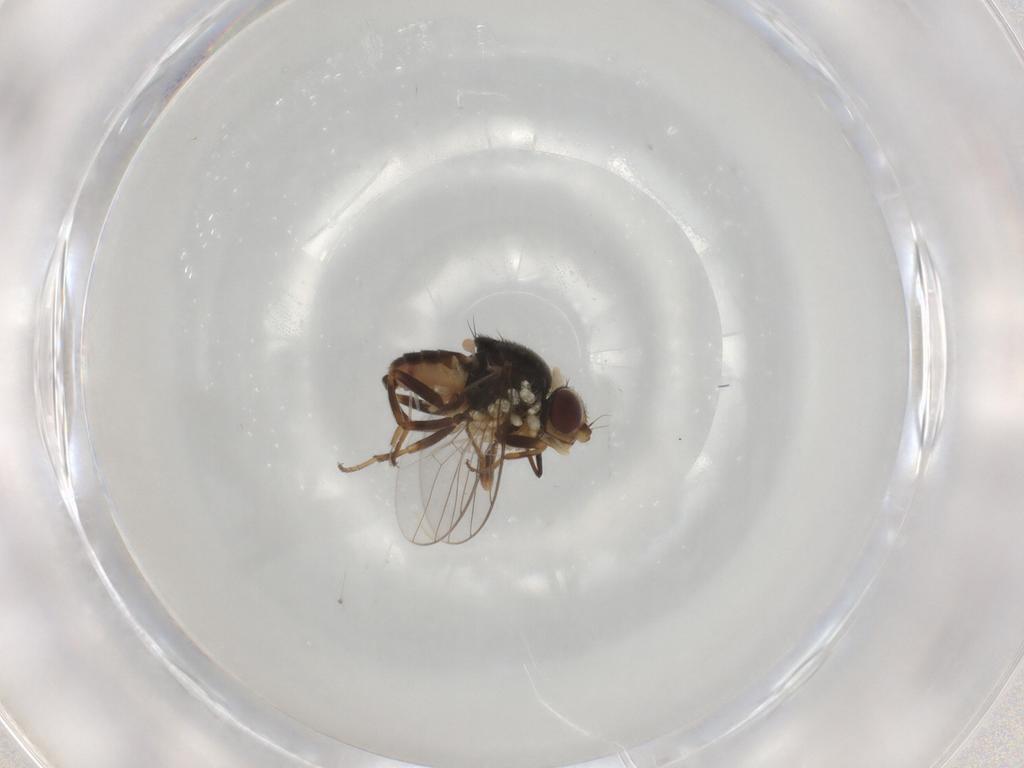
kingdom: Animalia
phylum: Arthropoda
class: Insecta
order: Diptera
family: Chloropidae
